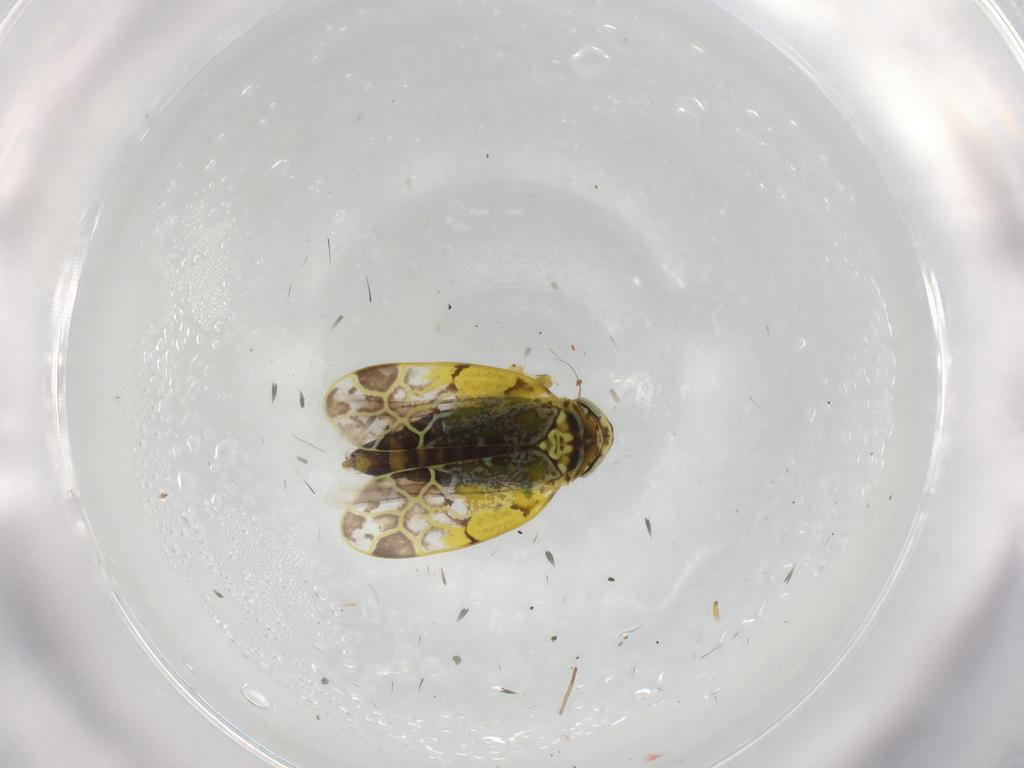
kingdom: Animalia
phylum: Arthropoda
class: Insecta
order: Hemiptera
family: Cicadellidae
